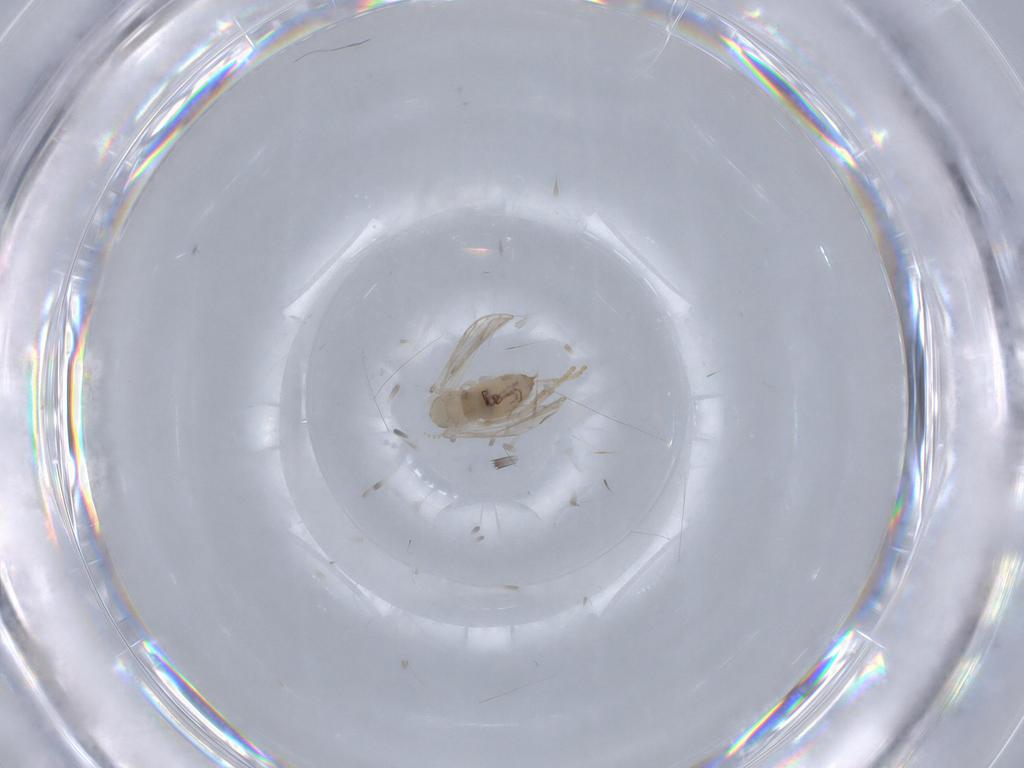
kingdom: Animalia
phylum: Arthropoda
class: Insecta
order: Diptera
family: Psychodidae
